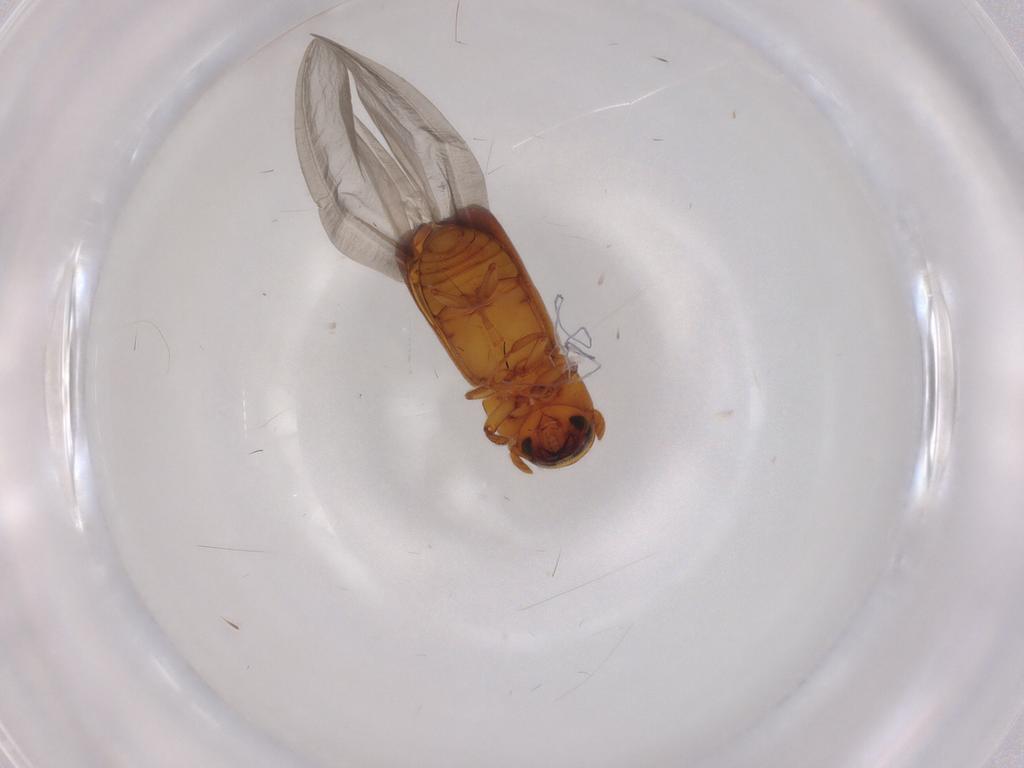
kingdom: Animalia
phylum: Arthropoda
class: Insecta
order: Coleoptera
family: Curculionidae
